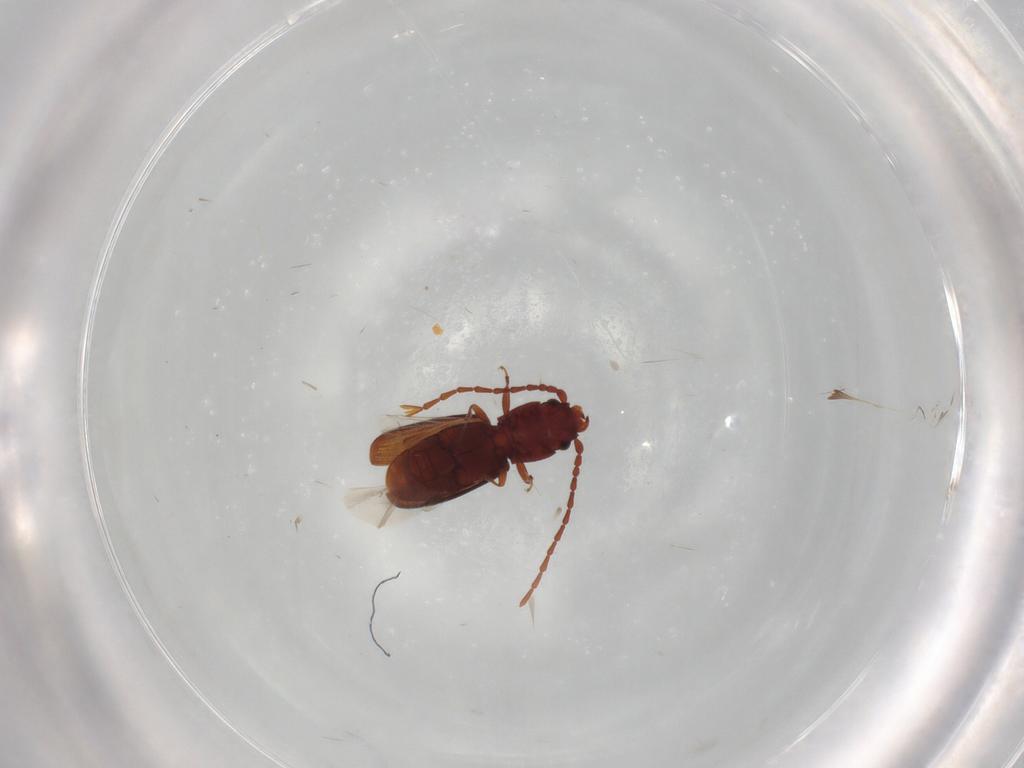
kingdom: Animalia
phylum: Arthropoda
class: Insecta
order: Coleoptera
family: Laemophloeidae
